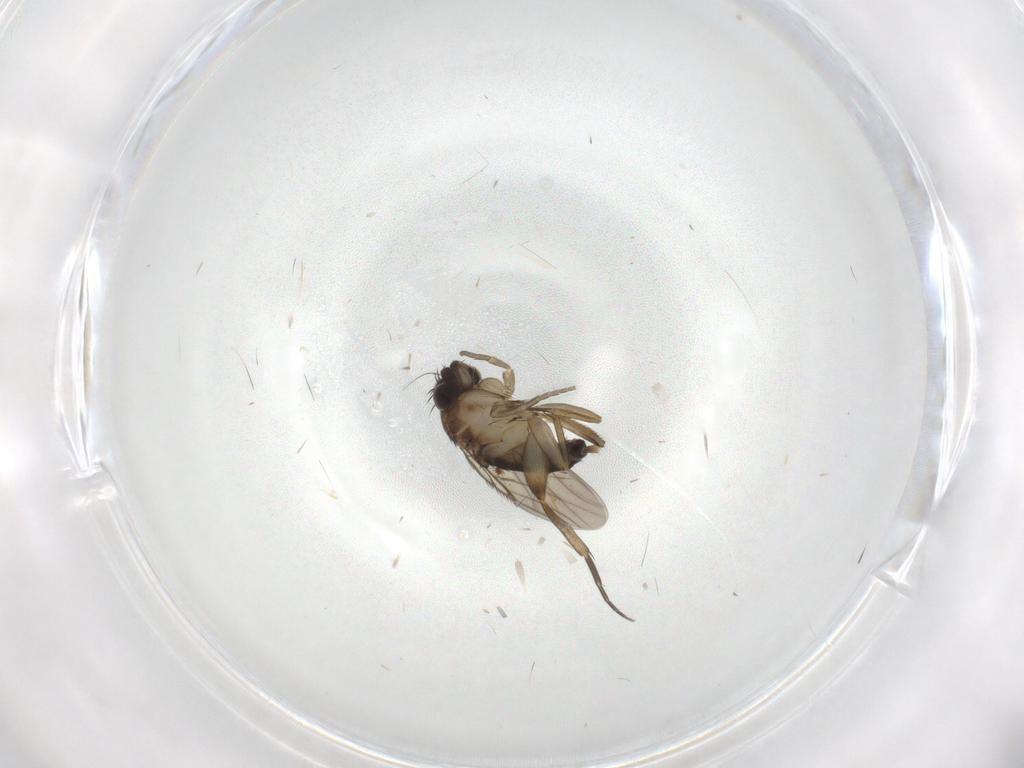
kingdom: Animalia
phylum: Arthropoda
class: Insecta
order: Diptera
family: Phoridae
